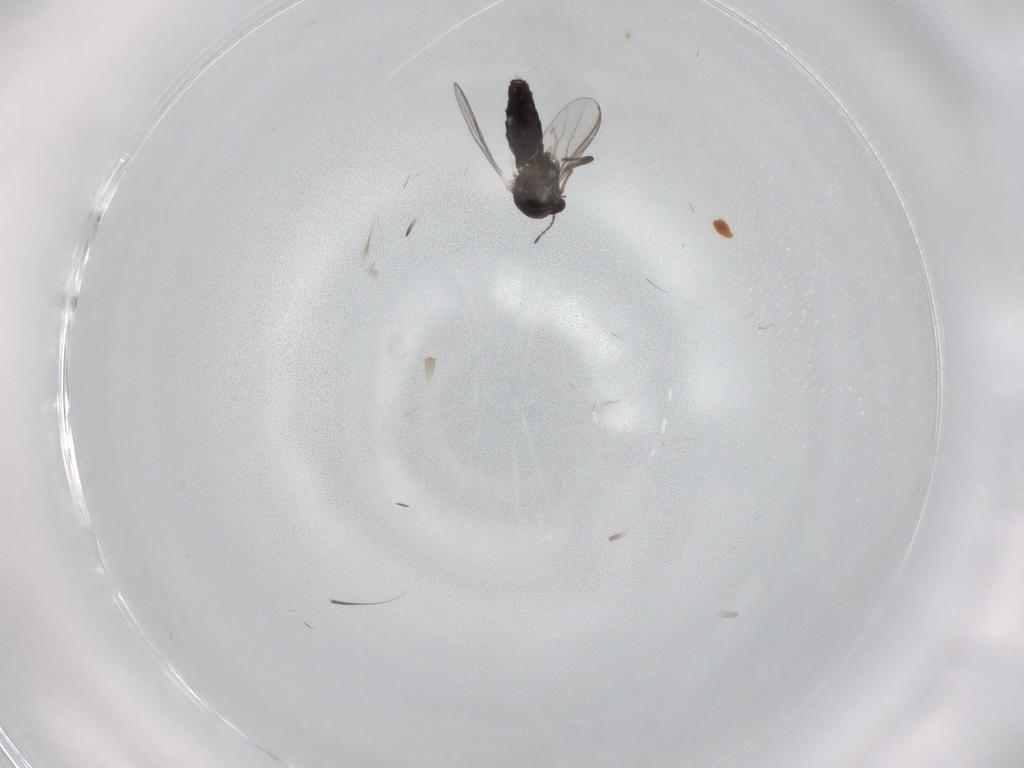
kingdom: Animalia
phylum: Arthropoda
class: Insecta
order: Diptera
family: Chironomidae
